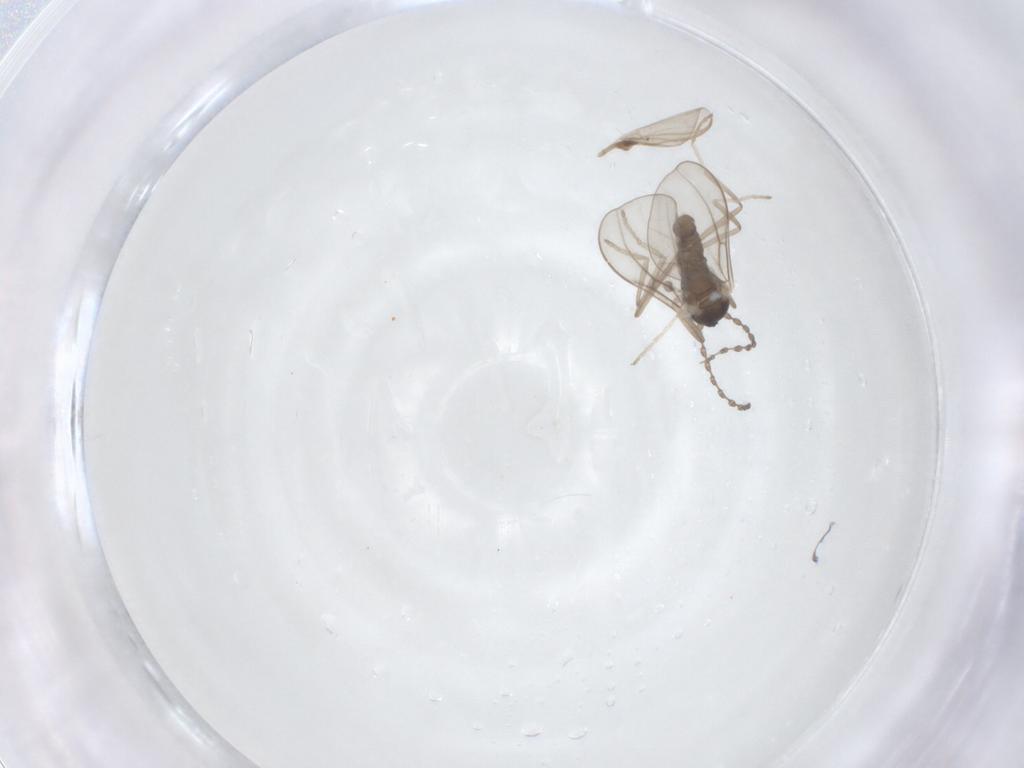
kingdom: Animalia
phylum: Arthropoda
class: Insecta
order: Diptera
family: Cecidomyiidae
